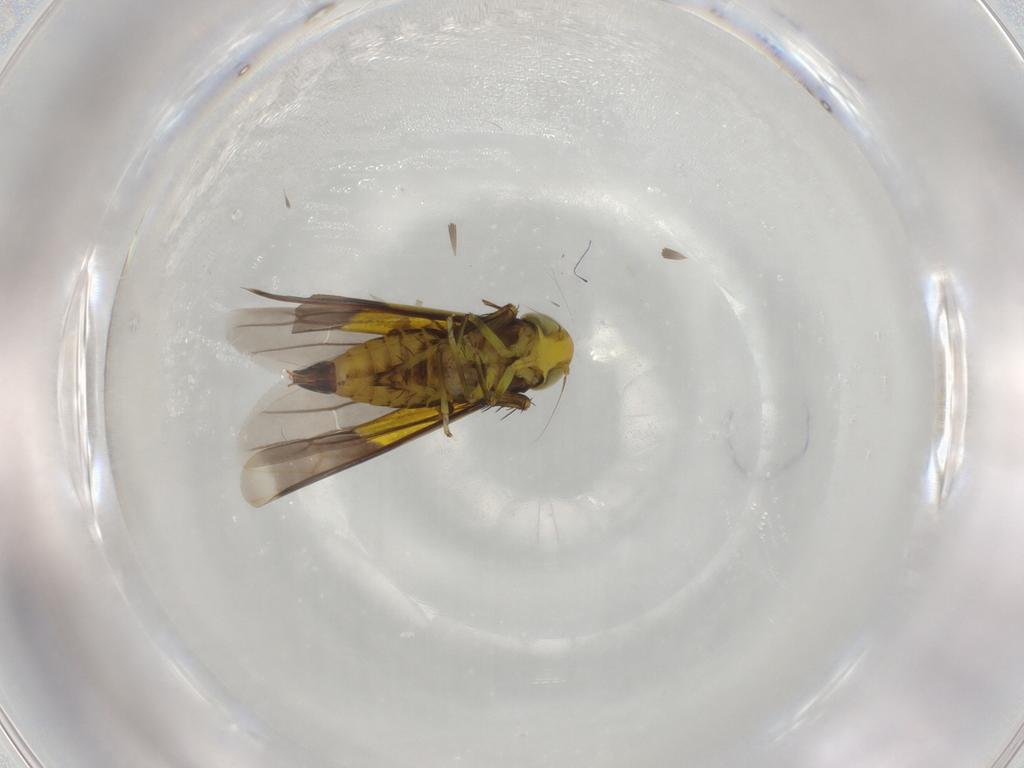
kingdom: Animalia
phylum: Arthropoda
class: Insecta
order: Hemiptera
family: Cicadellidae
